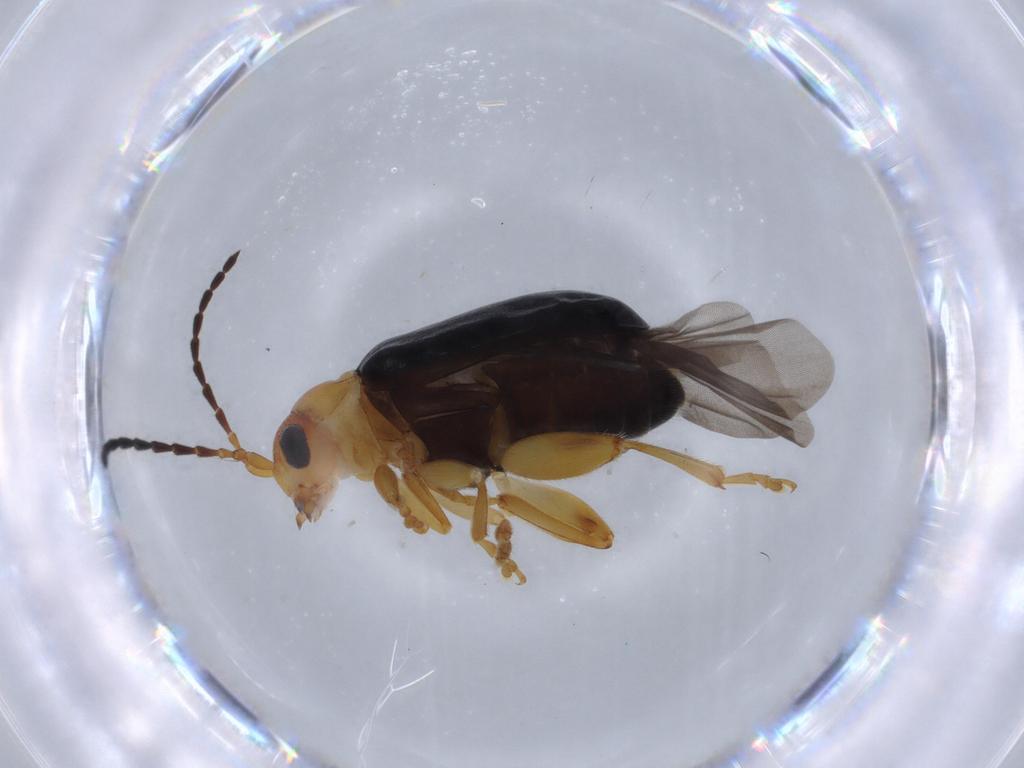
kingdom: Animalia
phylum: Arthropoda
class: Insecta
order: Coleoptera
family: Chrysomelidae
